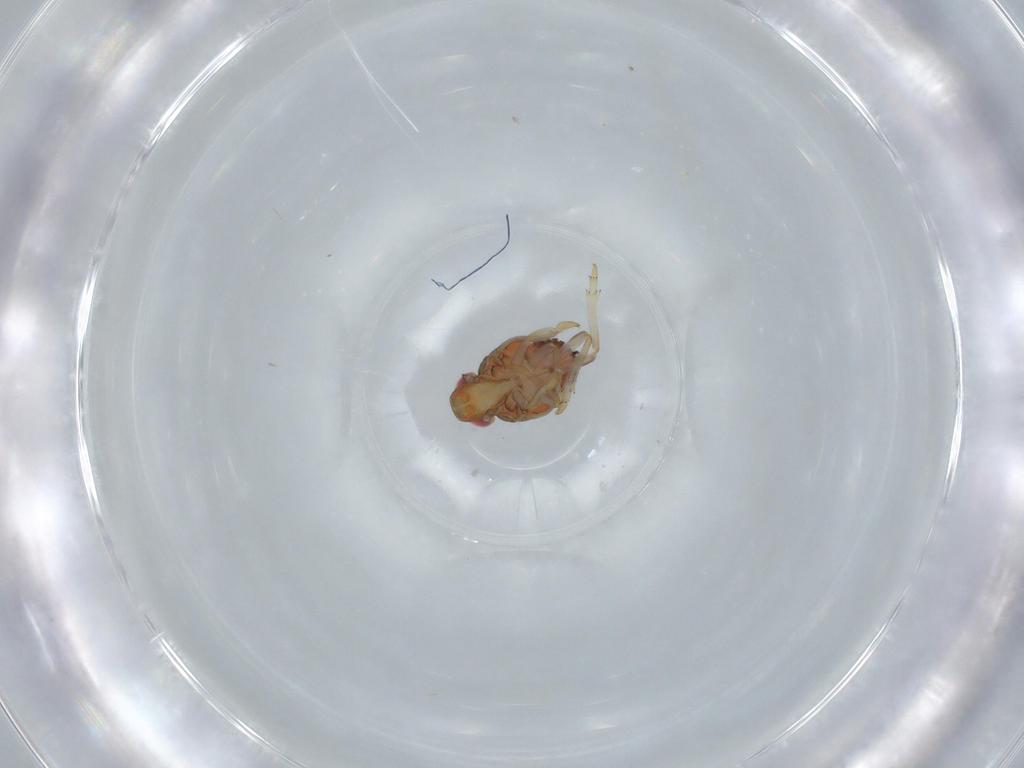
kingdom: Animalia
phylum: Arthropoda
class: Insecta
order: Hemiptera
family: Issidae
